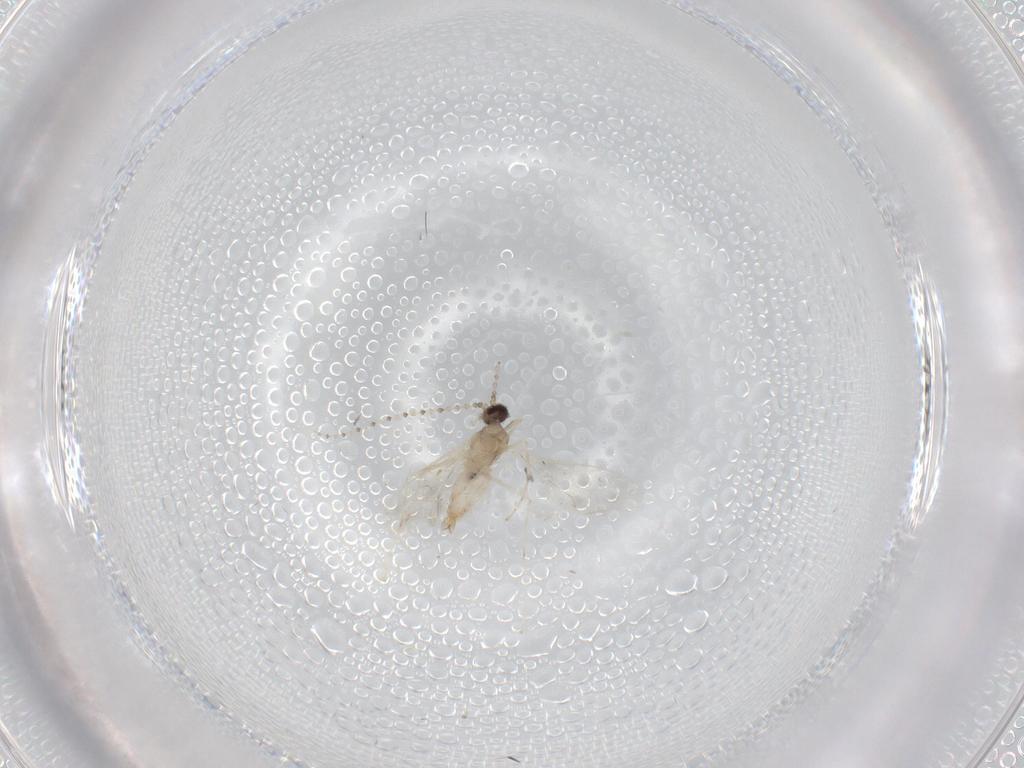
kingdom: Animalia
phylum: Arthropoda
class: Insecta
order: Diptera
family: Cecidomyiidae
